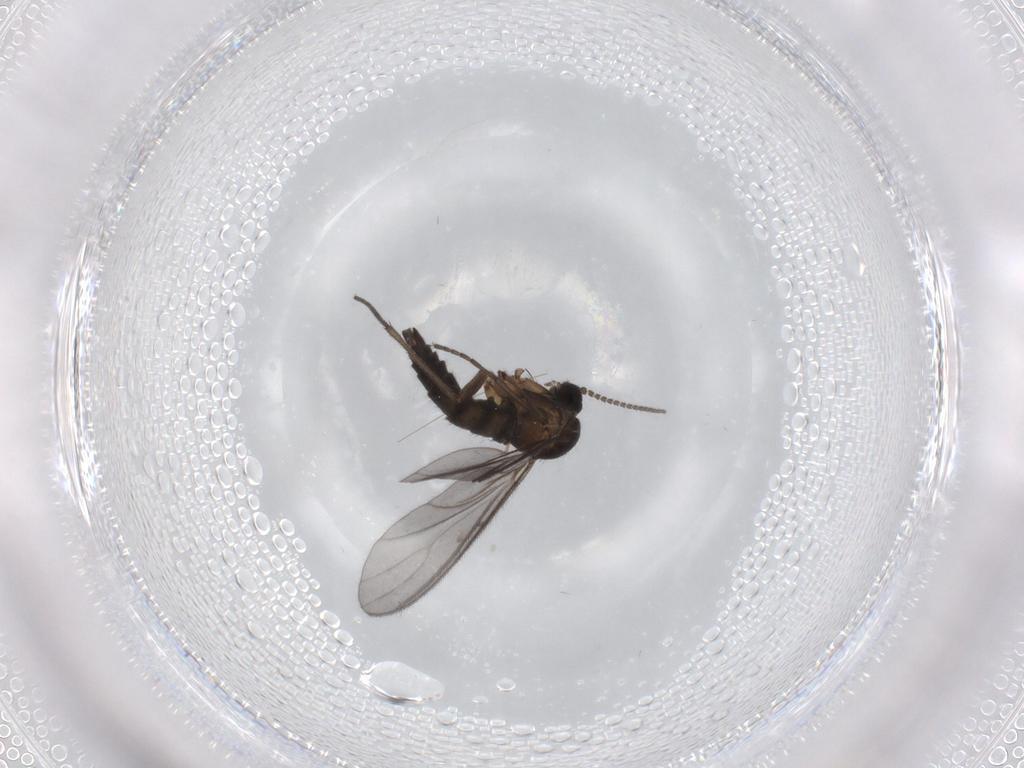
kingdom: Animalia
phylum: Arthropoda
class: Insecta
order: Diptera
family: Sciaridae
